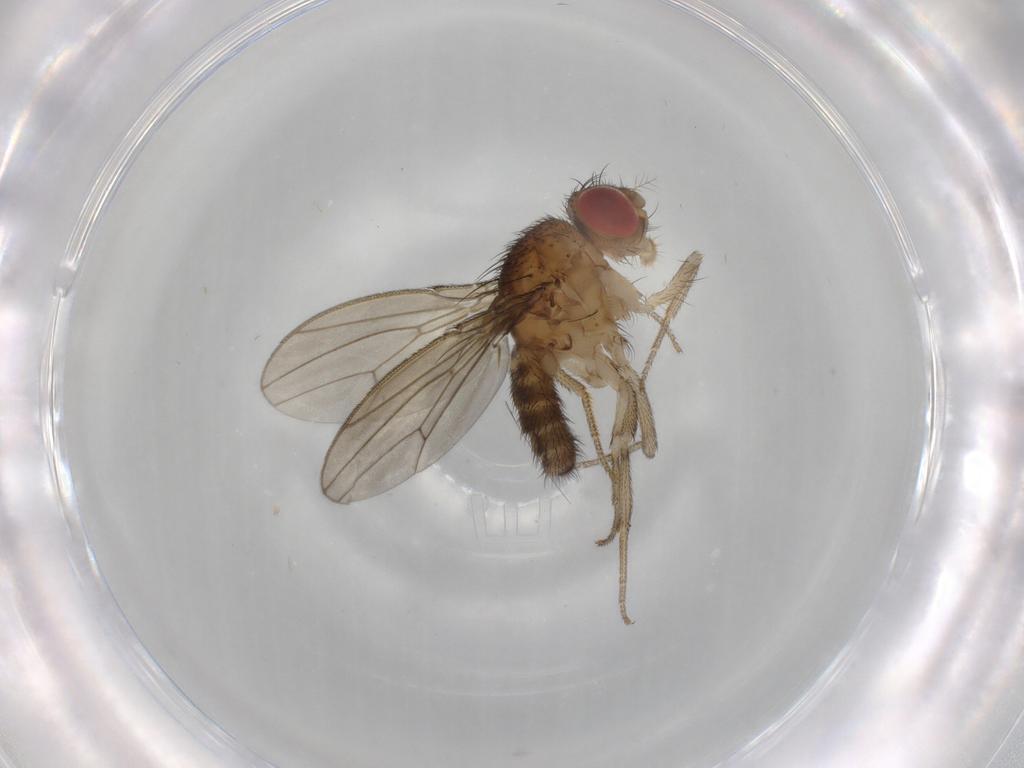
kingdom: Animalia
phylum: Arthropoda
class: Insecta
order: Diptera
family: Drosophilidae
